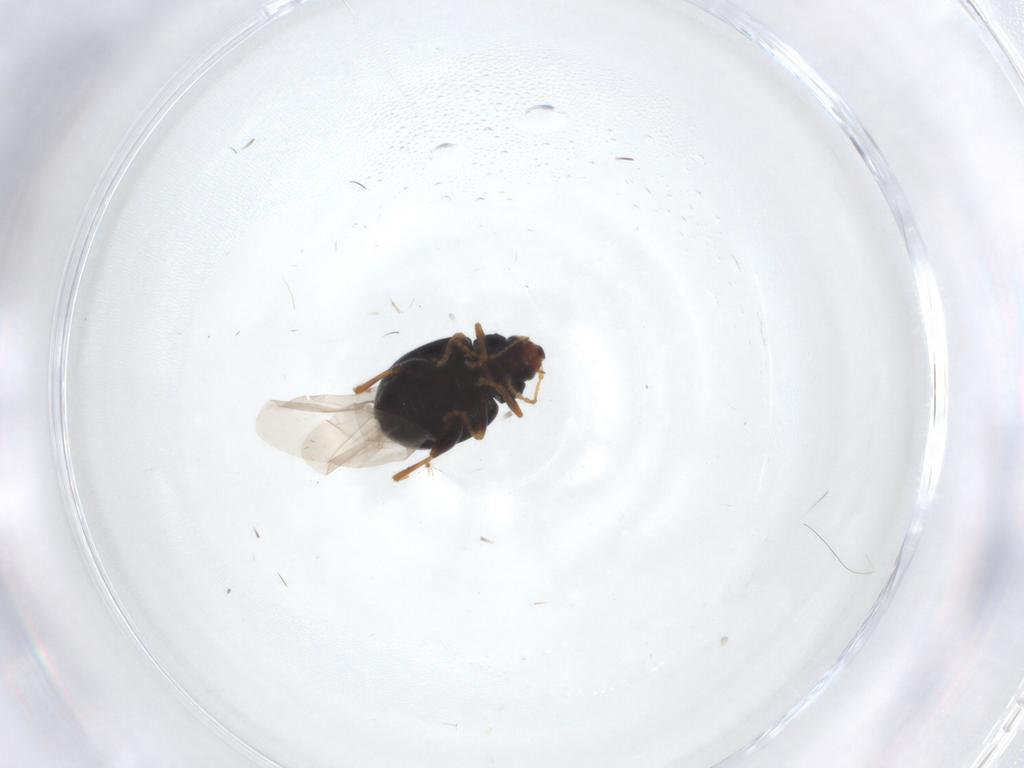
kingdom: Animalia
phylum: Arthropoda
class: Insecta
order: Coleoptera
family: Chrysomelidae
